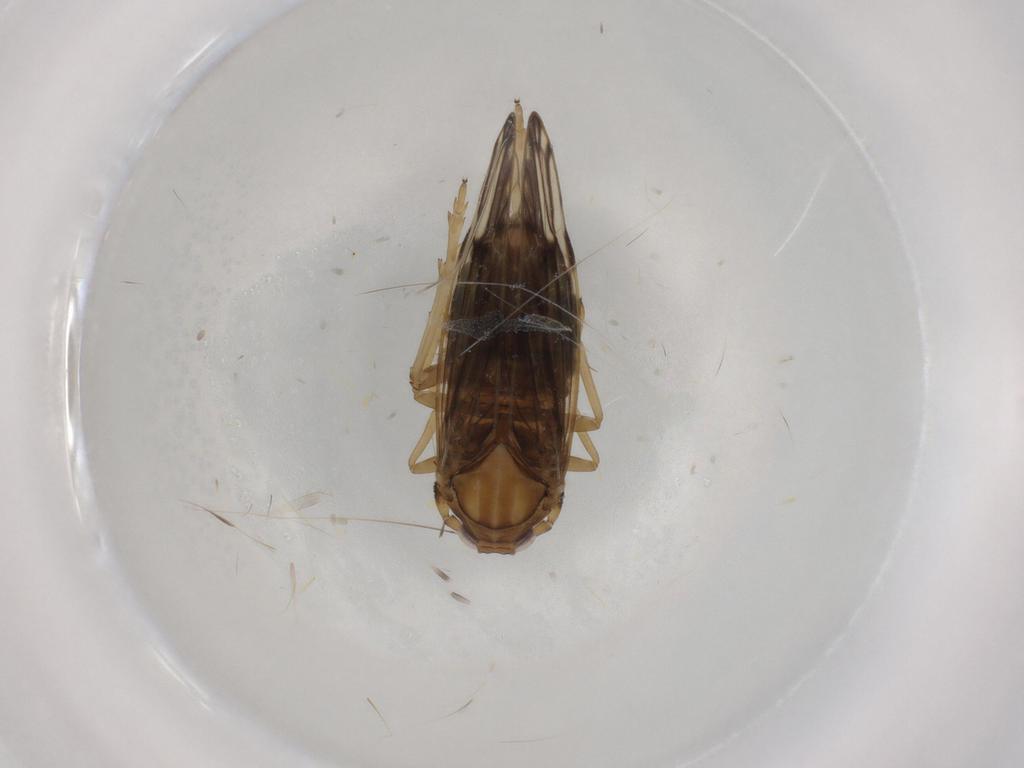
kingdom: Animalia
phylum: Arthropoda
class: Insecta
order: Hemiptera
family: Delphacidae
